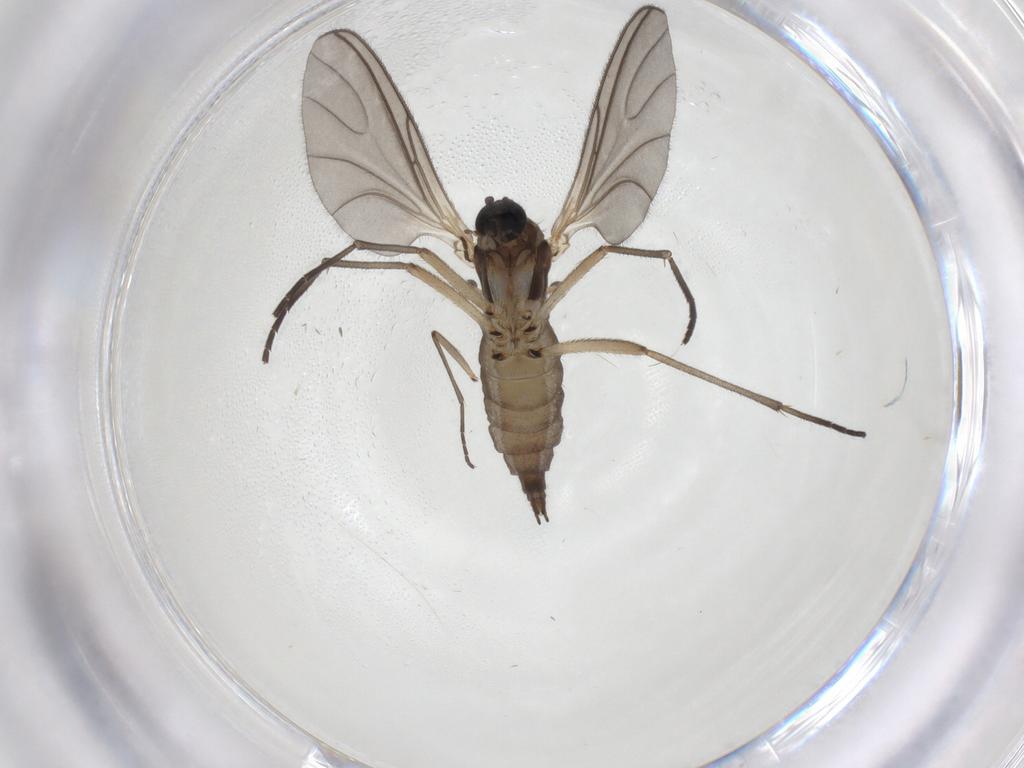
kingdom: Animalia
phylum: Arthropoda
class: Insecta
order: Diptera
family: Sciaridae
